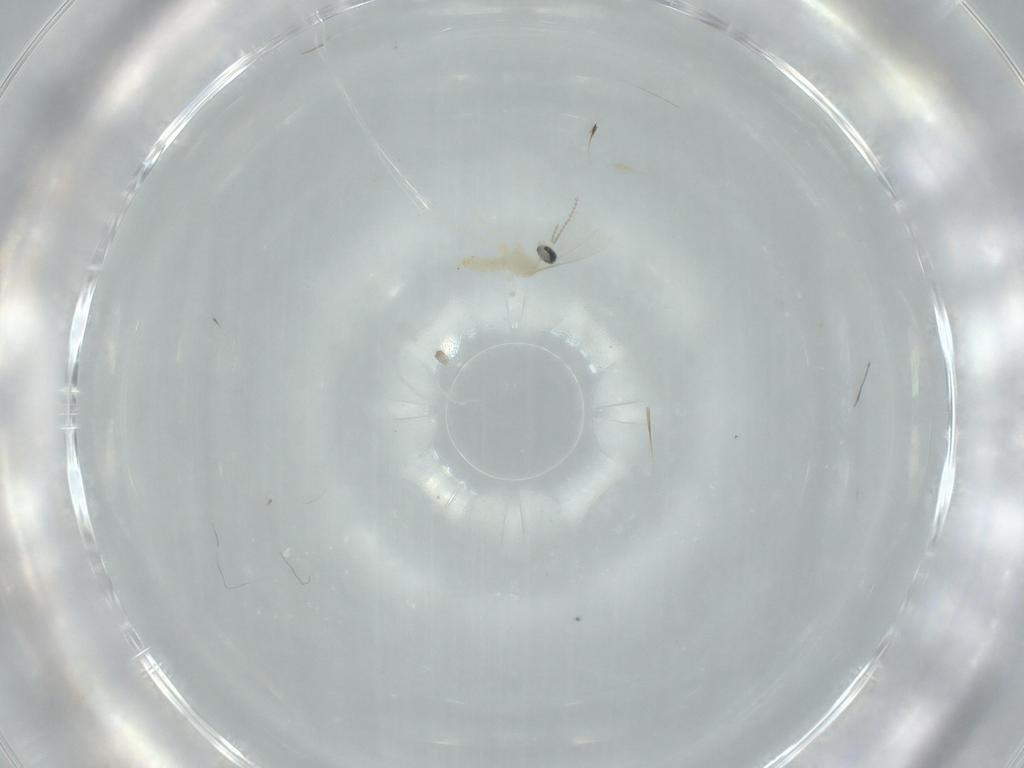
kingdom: Animalia
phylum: Arthropoda
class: Insecta
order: Diptera
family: Cecidomyiidae
